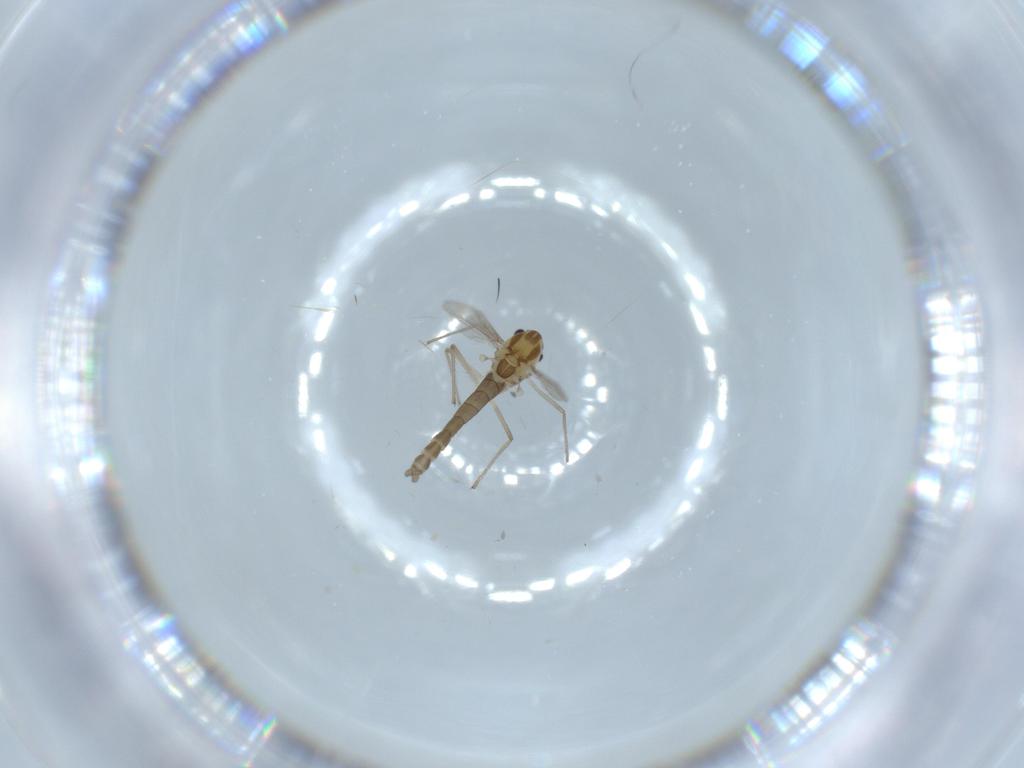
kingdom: Animalia
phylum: Arthropoda
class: Insecta
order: Diptera
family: Chironomidae
